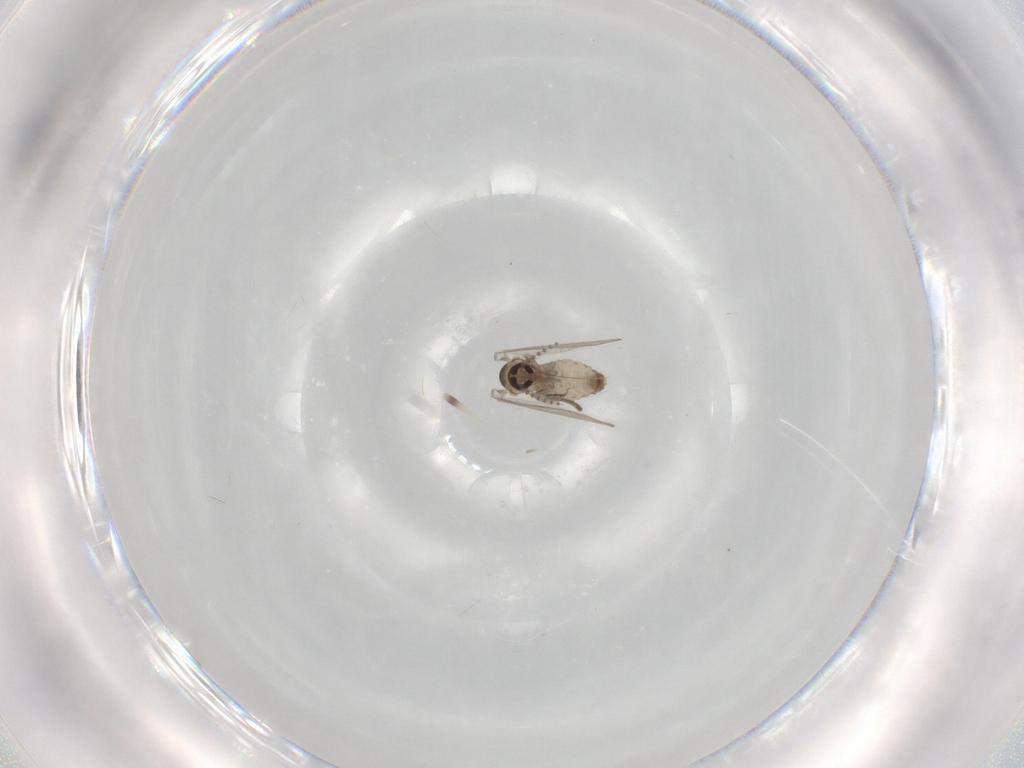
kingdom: Animalia
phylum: Arthropoda
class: Insecta
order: Diptera
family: Psychodidae
